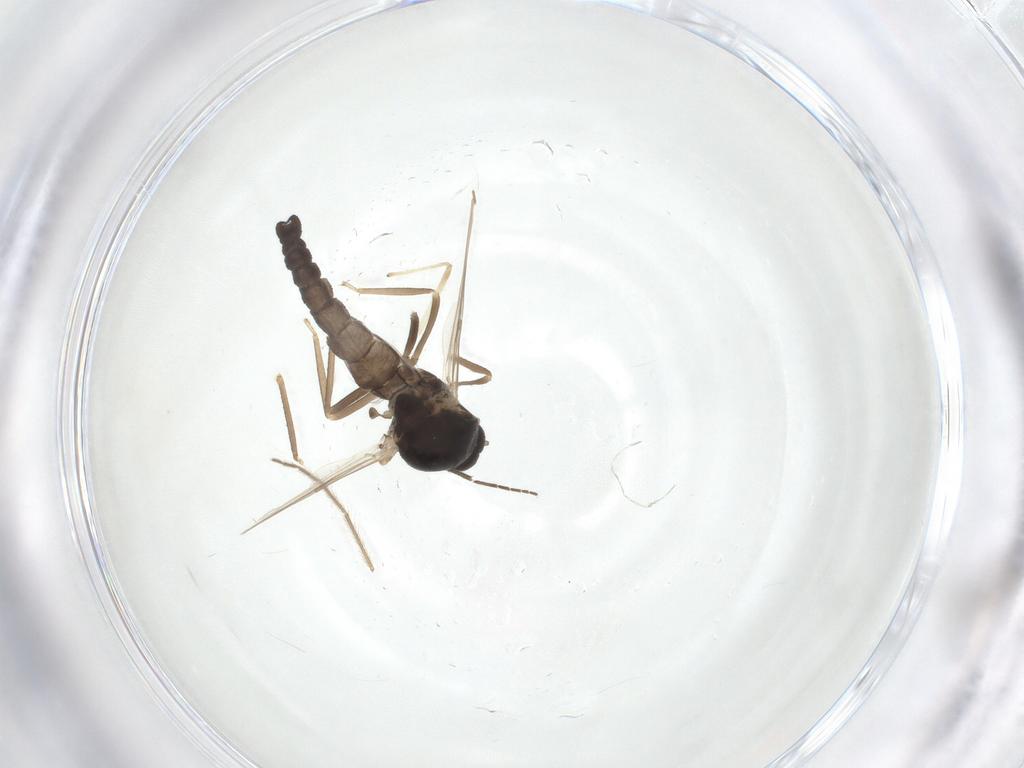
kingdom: Animalia
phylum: Arthropoda
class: Insecta
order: Diptera
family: Ceratopogonidae
